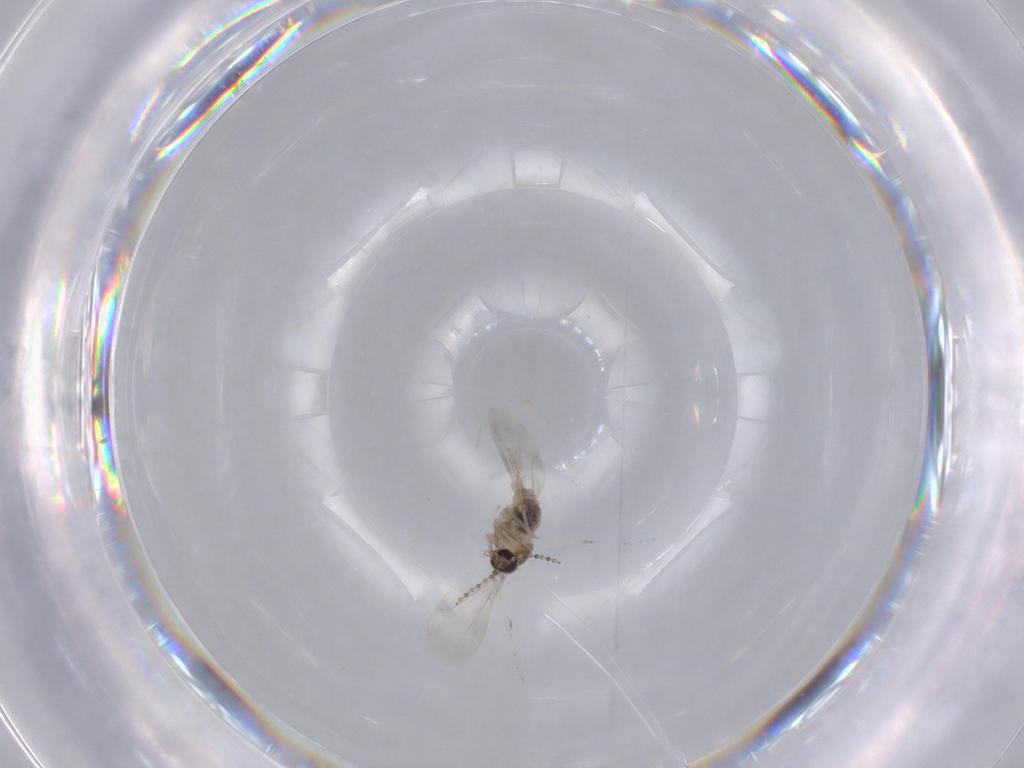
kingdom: Animalia
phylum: Arthropoda
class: Insecta
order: Diptera
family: Cecidomyiidae
